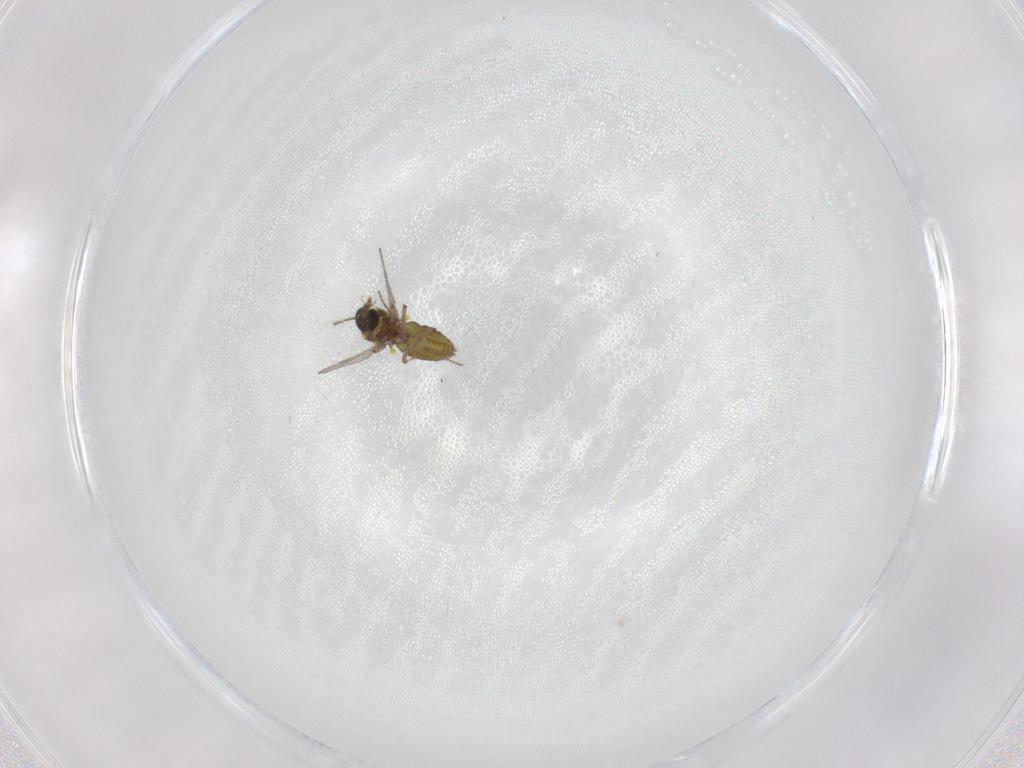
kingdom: Animalia
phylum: Arthropoda
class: Insecta
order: Diptera
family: Ceratopogonidae
